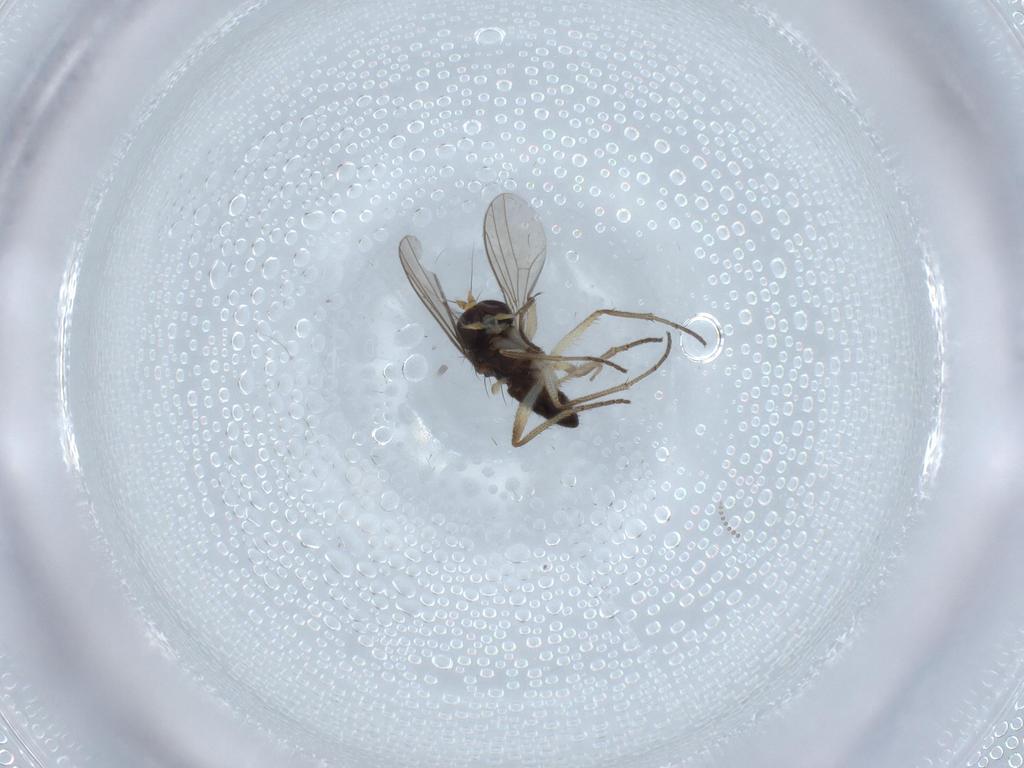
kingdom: Animalia
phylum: Arthropoda
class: Insecta
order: Diptera
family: Dolichopodidae
